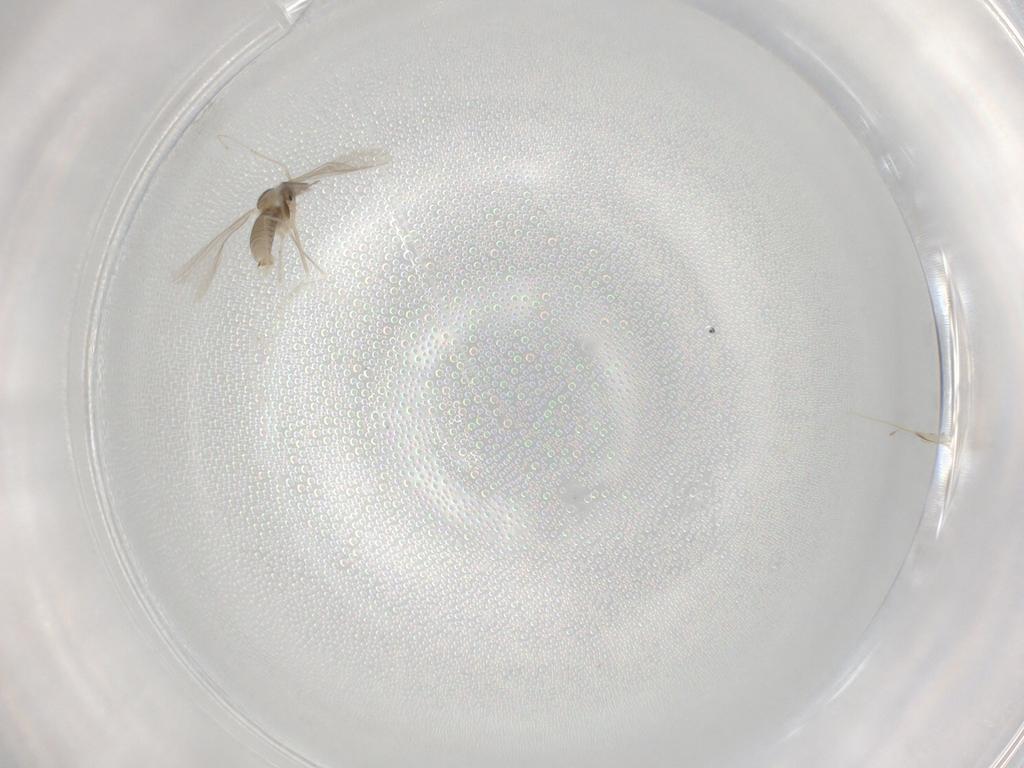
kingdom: Animalia
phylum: Arthropoda
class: Insecta
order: Diptera
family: Cecidomyiidae
